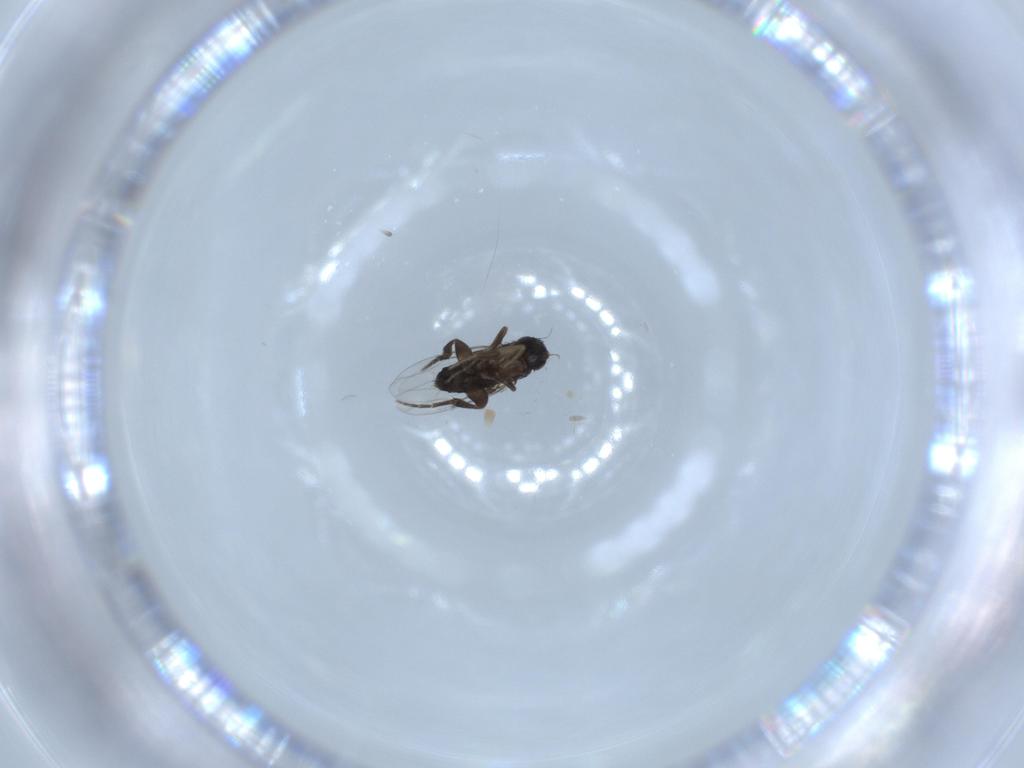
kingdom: Animalia
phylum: Arthropoda
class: Insecta
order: Diptera
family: Phoridae
